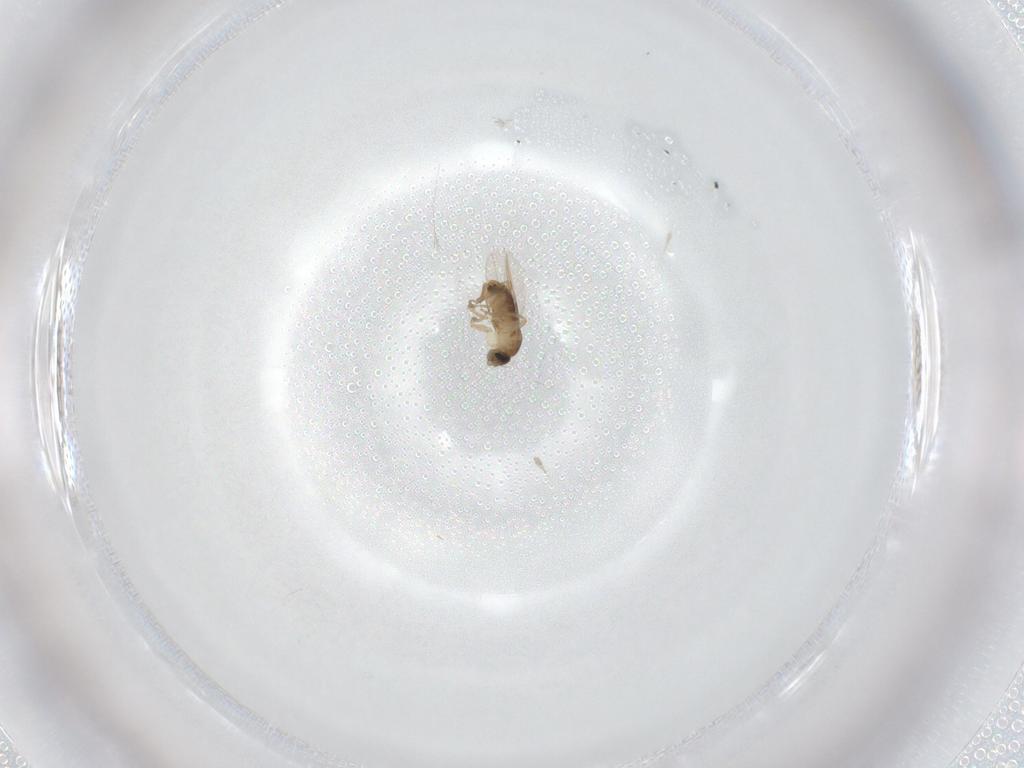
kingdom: Animalia
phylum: Arthropoda
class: Insecta
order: Diptera
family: Phoridae
